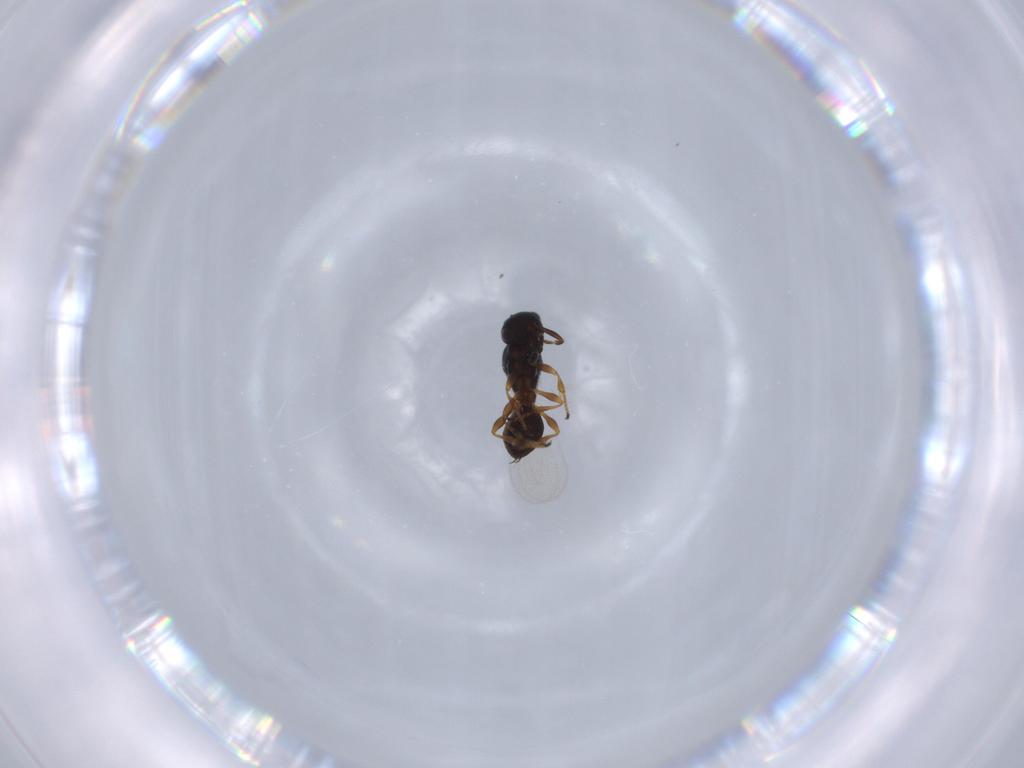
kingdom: Animalia
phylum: Arthropoda
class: Insecta
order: Hymenoptera
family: Platygastridae
